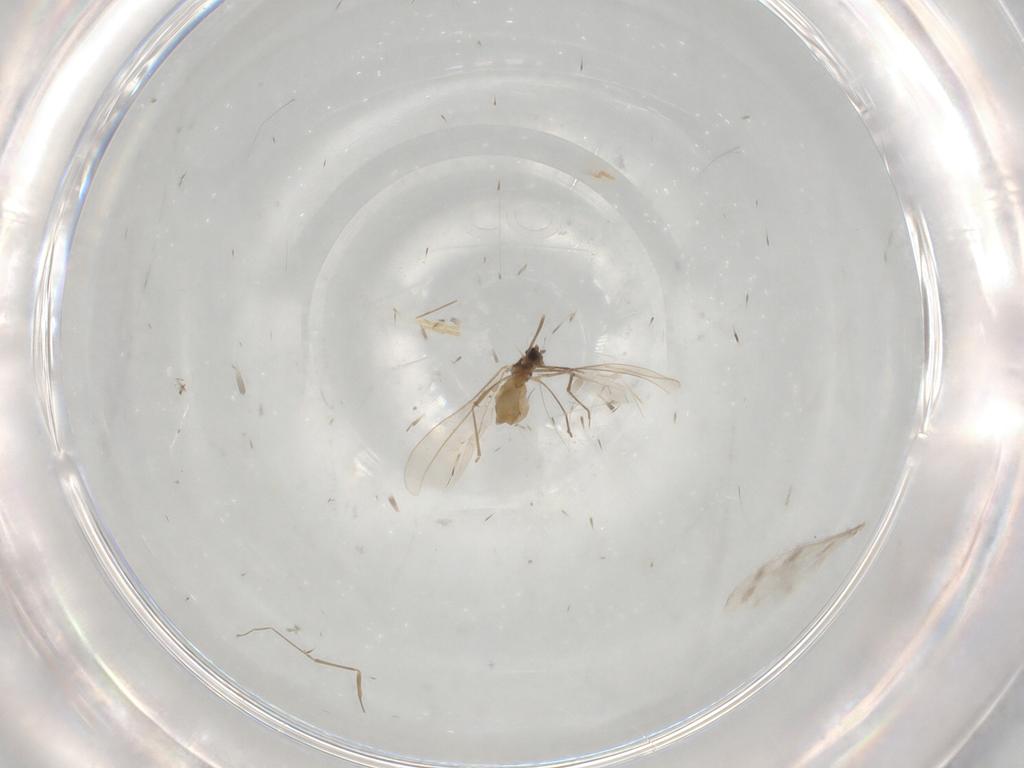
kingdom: Animalia
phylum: Arthropoda
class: Insecta
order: Diptera
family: Cecidomyiidae
